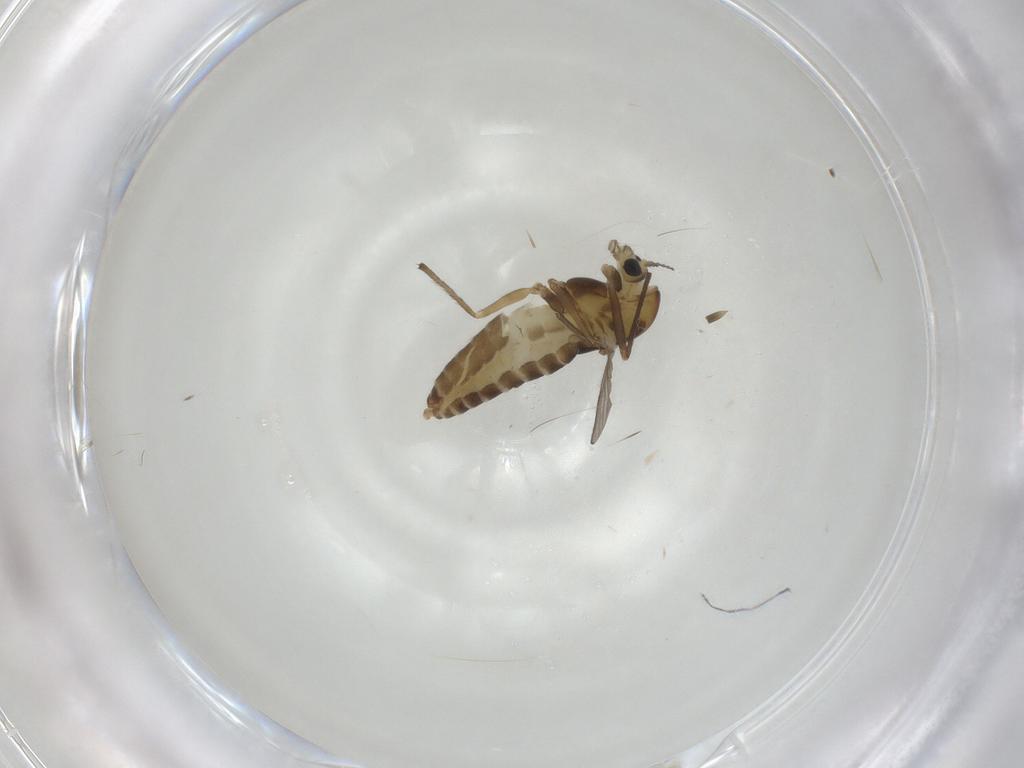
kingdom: Animalia
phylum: Arthropoda
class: Insecta
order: Diptera
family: Chironomidae
